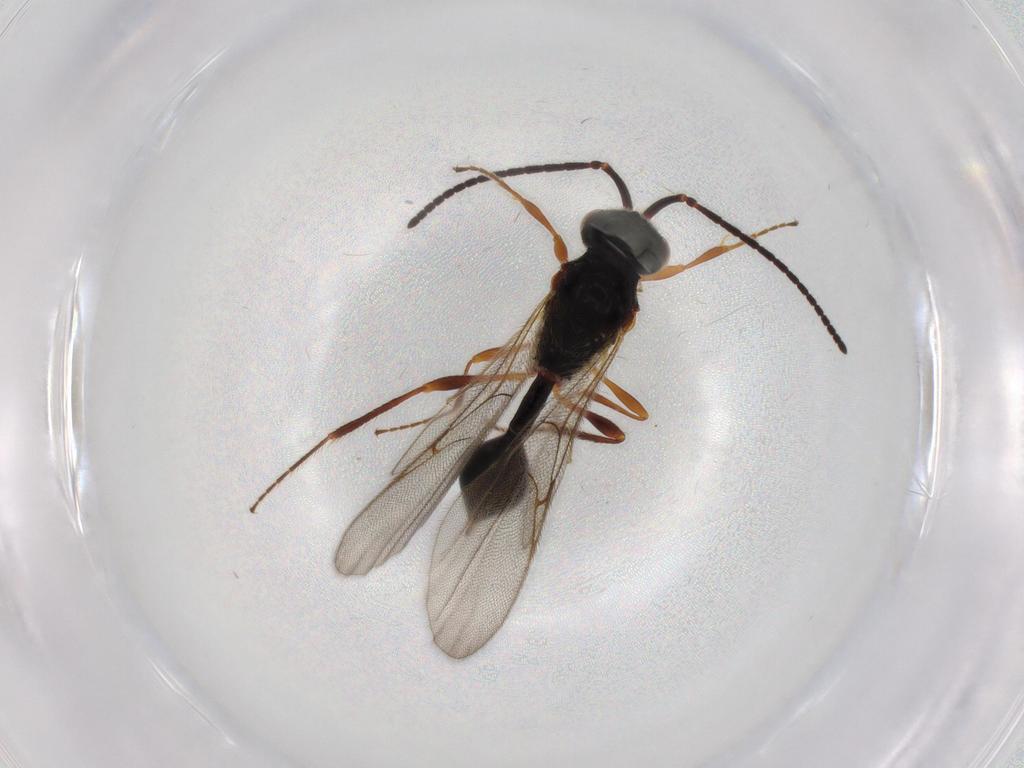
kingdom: Animalia
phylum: Arthropoda
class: Insecta
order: Hymenoptera
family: Diapriidae
